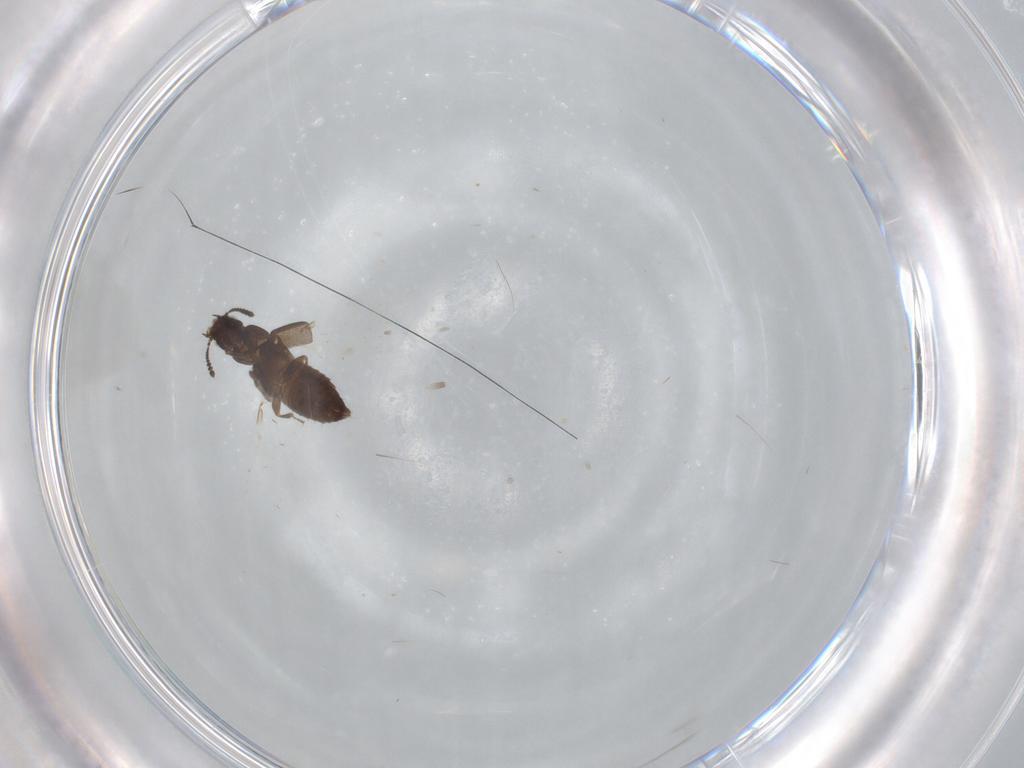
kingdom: Animalia
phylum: Arthropoda
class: Insecta
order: Coleoptera
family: Staphylinidae
